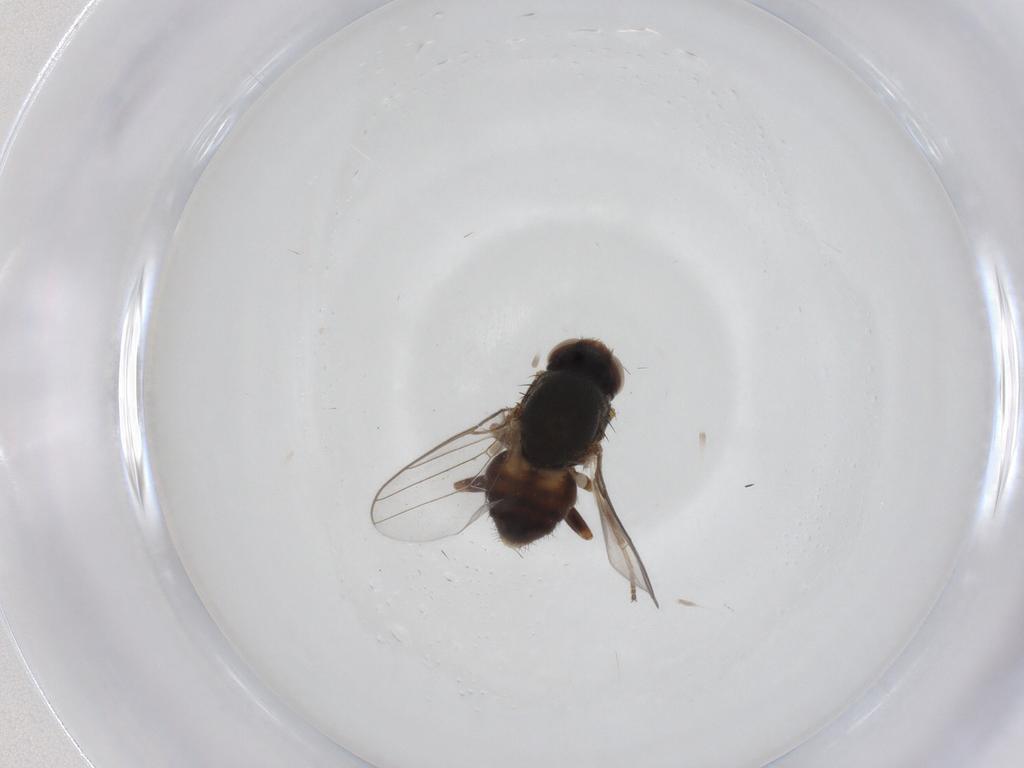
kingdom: Animalia
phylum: Arthropoda
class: Insecta
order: Diptera
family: Chloropidae
